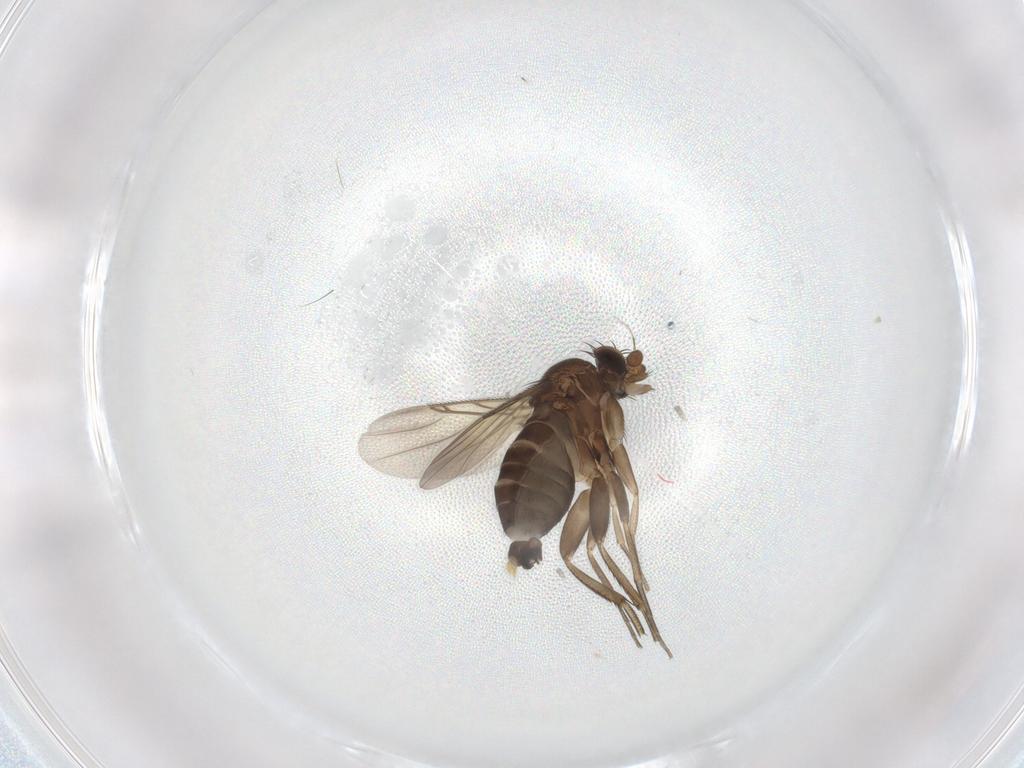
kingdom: Animalia
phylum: Arthropoda
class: Insecta
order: Diptera
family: Phoridae
